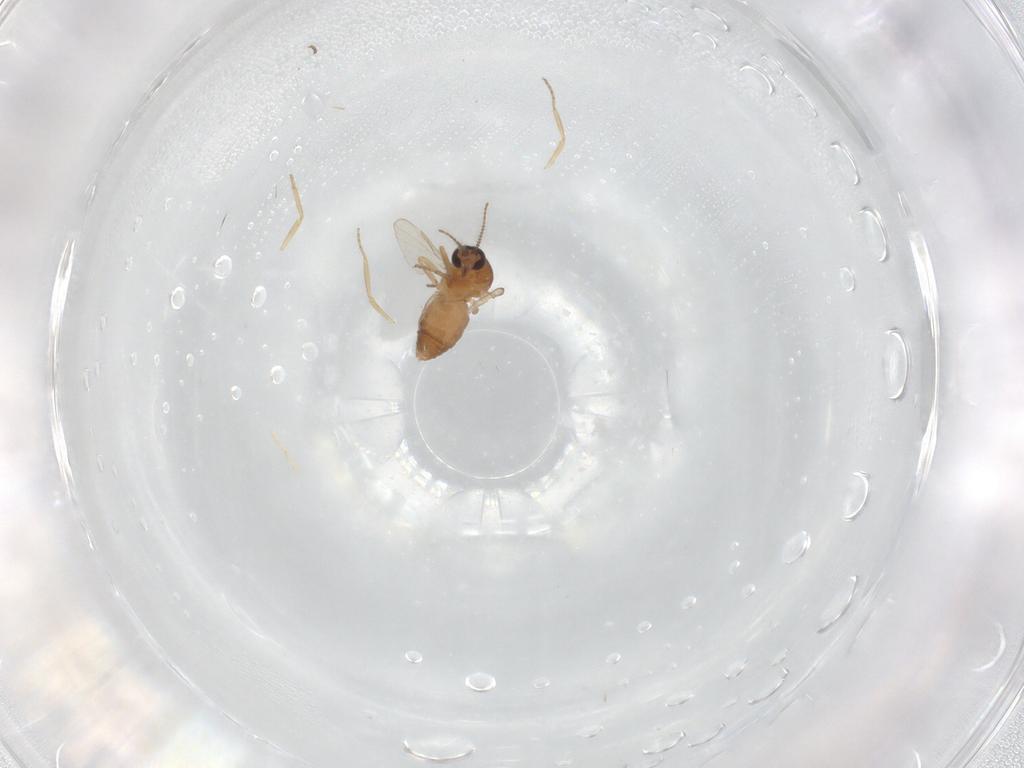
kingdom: Animalia
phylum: Arthropoda
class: Insecta
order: Diptera
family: Ceratopogonidae
